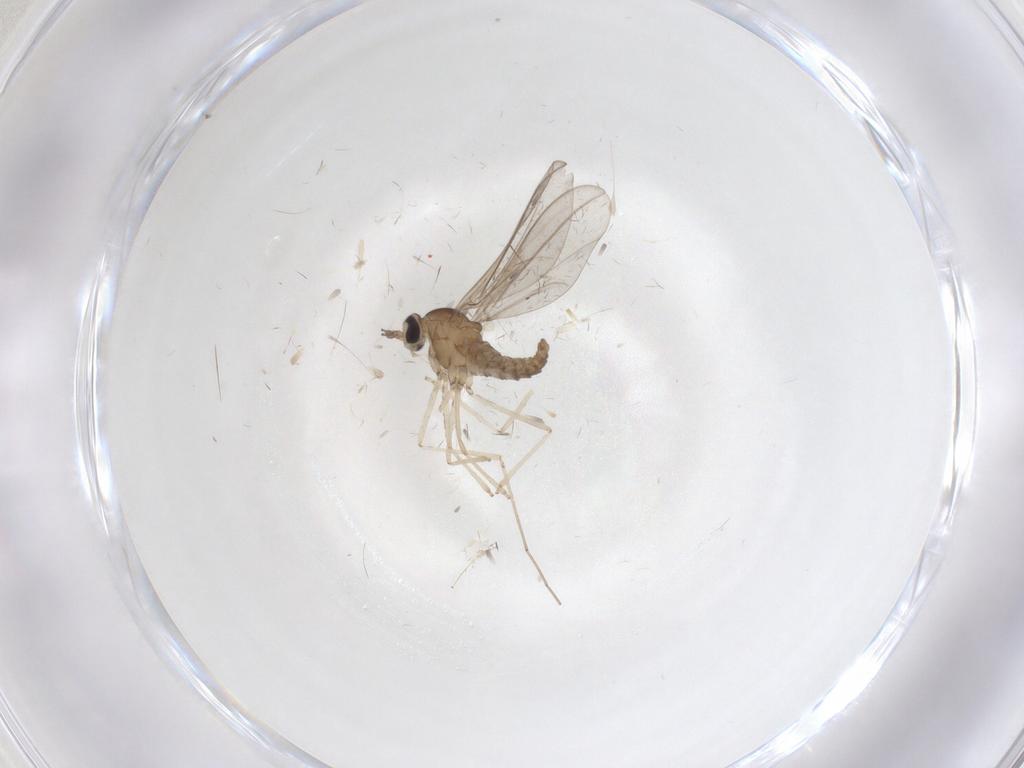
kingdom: Animalia
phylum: Arthropoda
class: Insecta
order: Diptera
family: Cecidomyiidae
